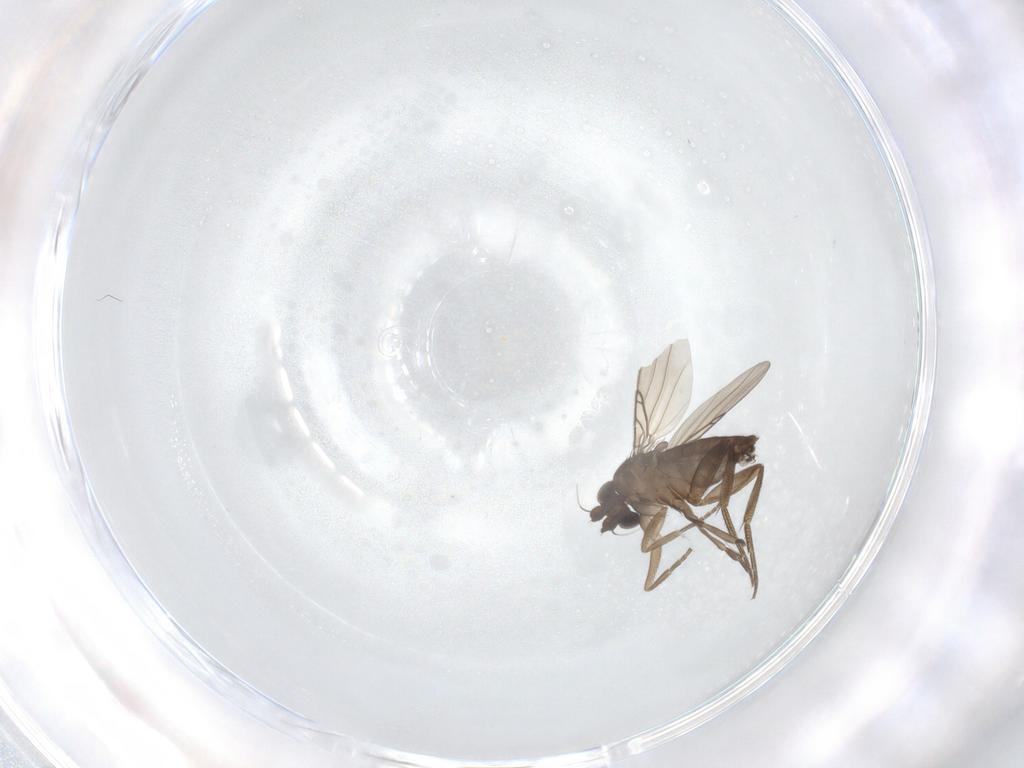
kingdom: Animalia
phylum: Arthropoda
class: Insecta
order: Diptera
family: Phoridae
